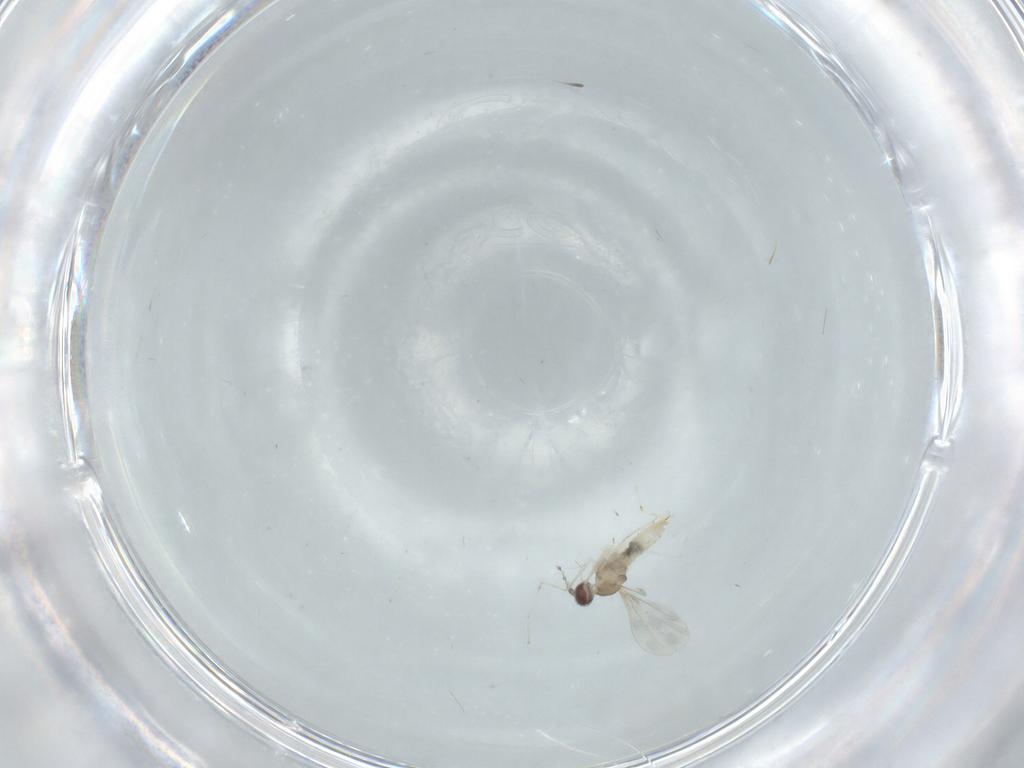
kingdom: Animalia
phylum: Arthropoda
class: Insecta
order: Diptera
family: Cecidomyiidae
